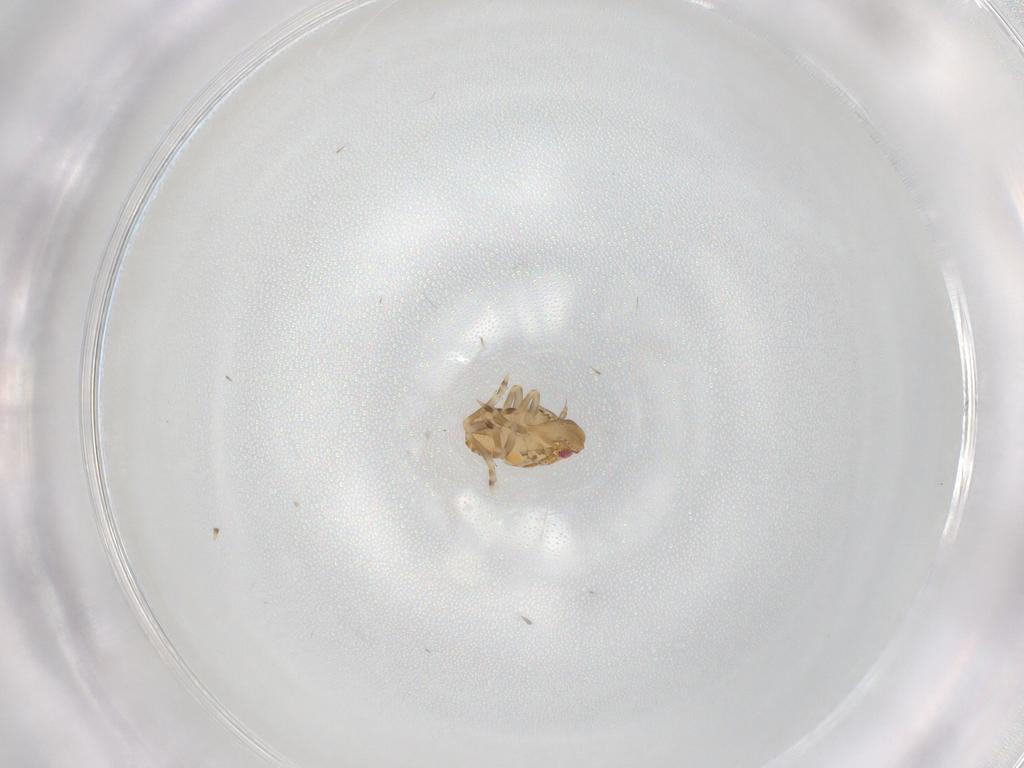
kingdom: Animalia
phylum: Arthropoda
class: Insecta
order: Hemiptera
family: Flatidae
